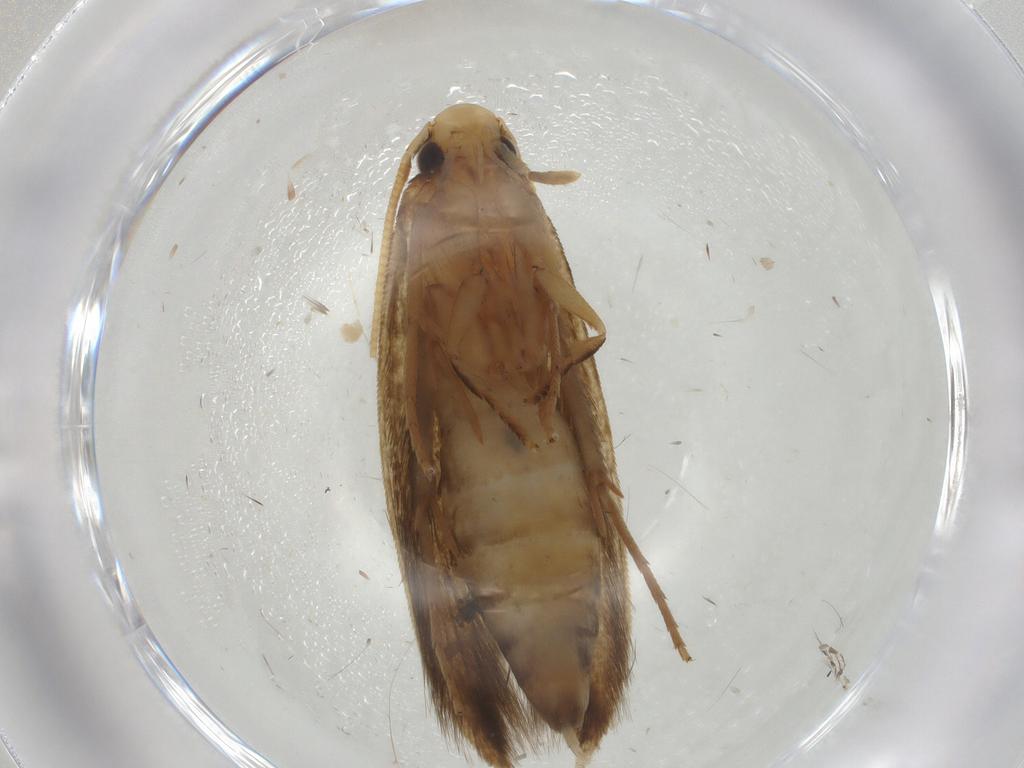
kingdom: Animalia
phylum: Arthropoda
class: Insecta
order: Lepidoptera
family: Tineidae
